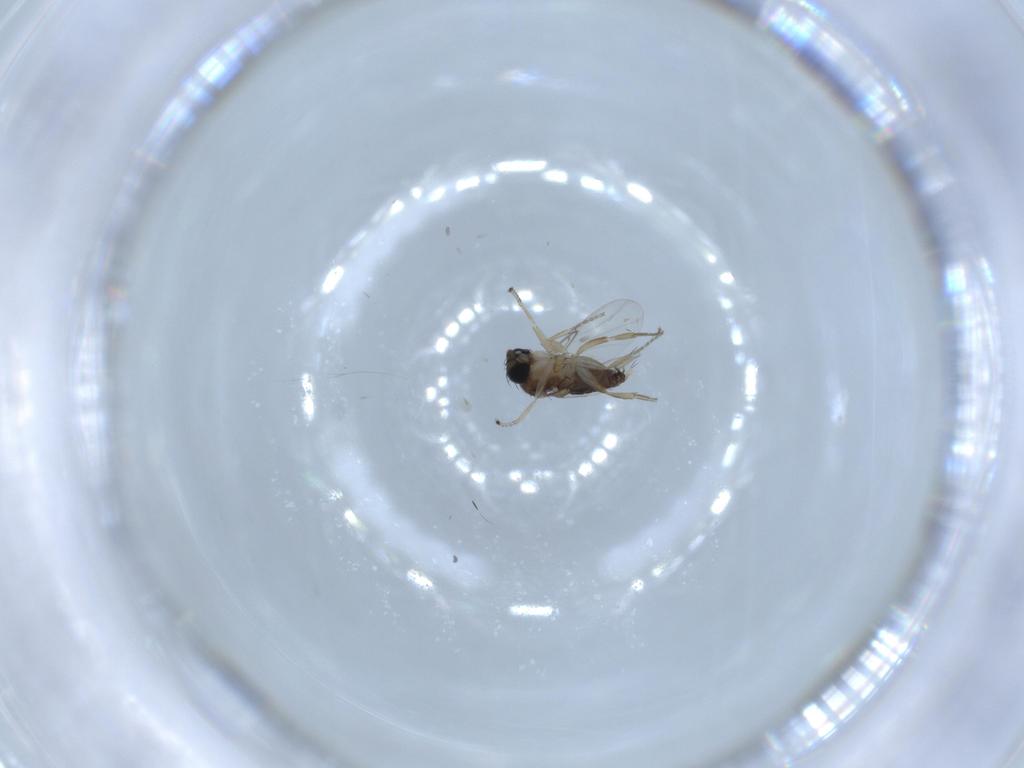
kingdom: Animalia
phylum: Arthropoda
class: Insecta
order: Diptera
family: Phoridae
